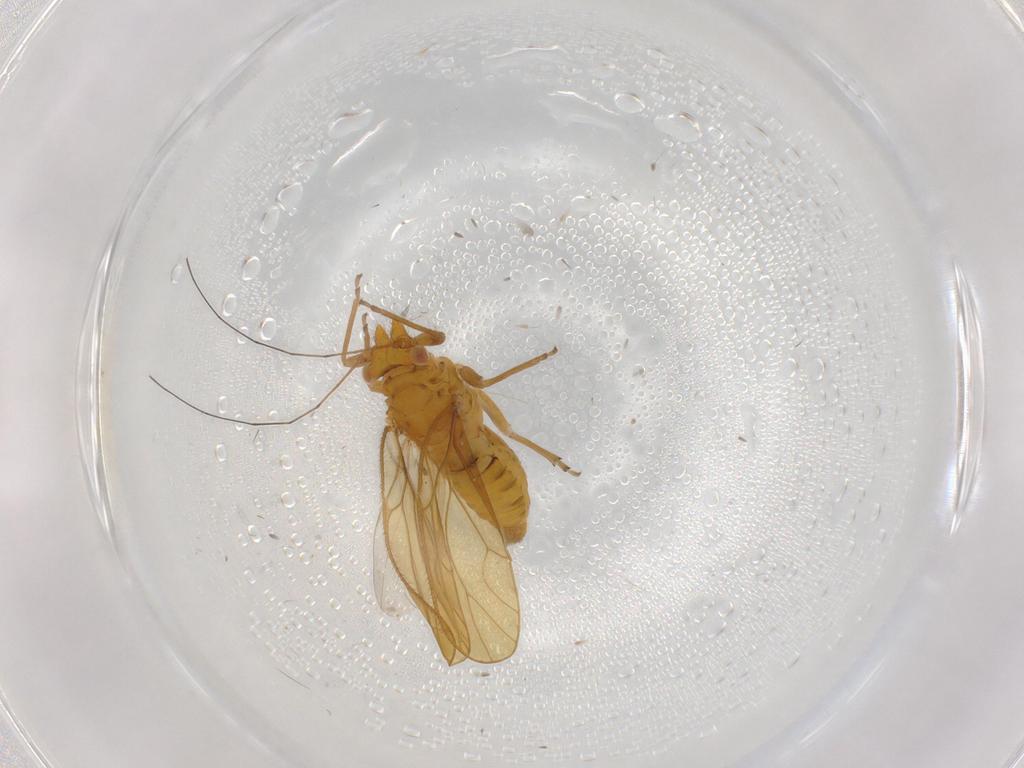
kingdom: Animalia
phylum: Arthropoda
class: Insecta
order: Hemiptera
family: Psyllidae
